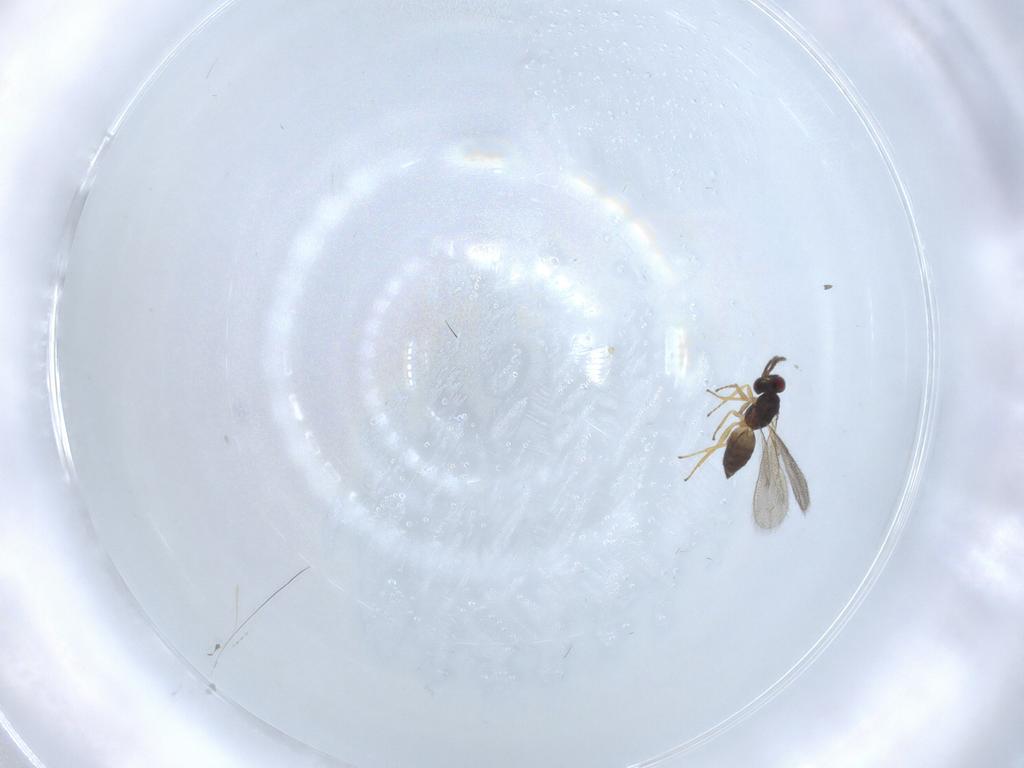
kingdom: Animalia
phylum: Arthropoda
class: Insecta
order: Hymenoptera
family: Eulophidae
